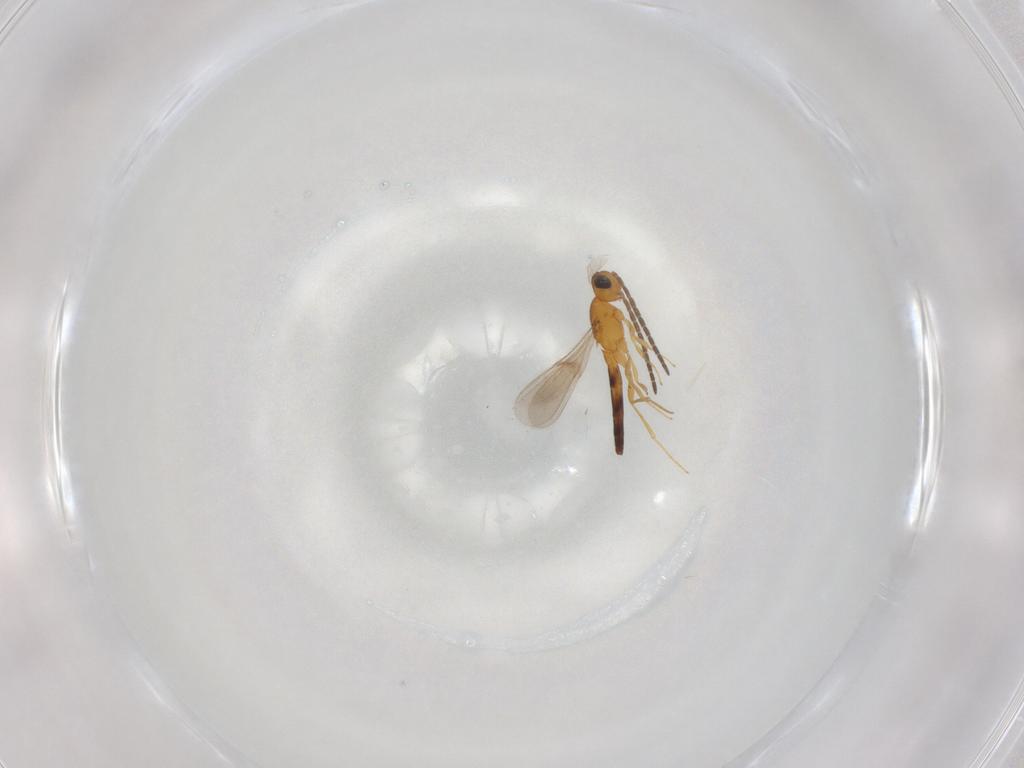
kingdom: Animalia
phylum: Arthropoda
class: Insecta
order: Hymenoptera
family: Scelionidae
